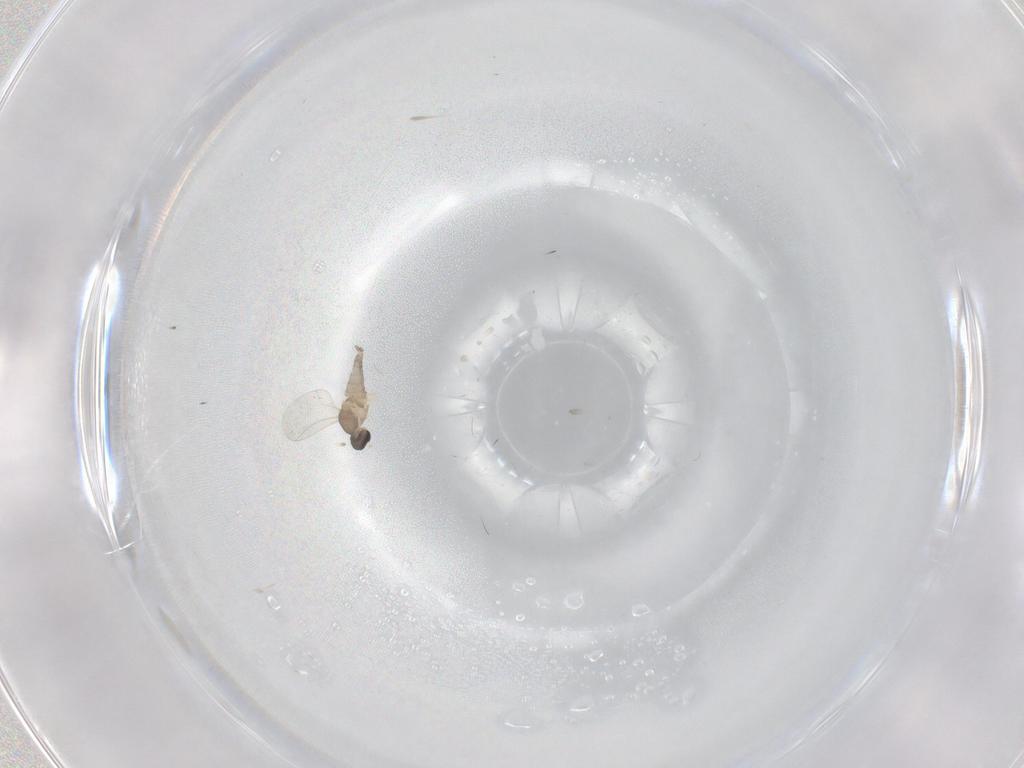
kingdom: Animalia
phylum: Arthropoda
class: Insecta
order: Diptera
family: Cecidomyiidae
